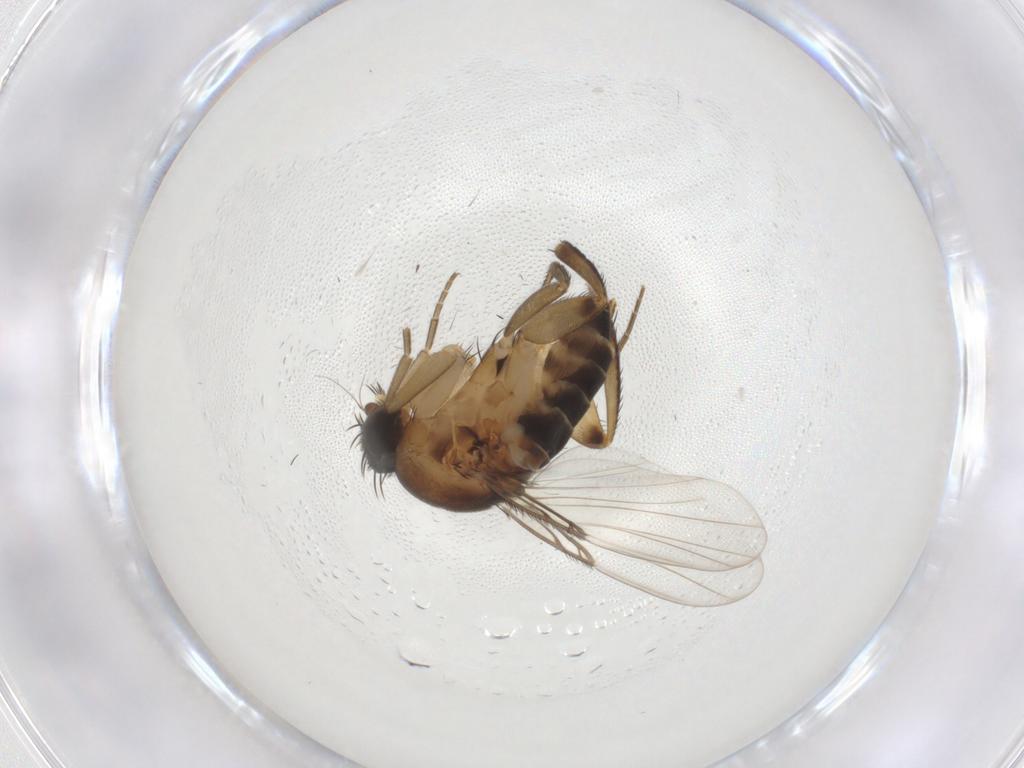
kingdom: Animalia
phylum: Arthropoda
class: Insecta
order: Diptera
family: Phoridae
